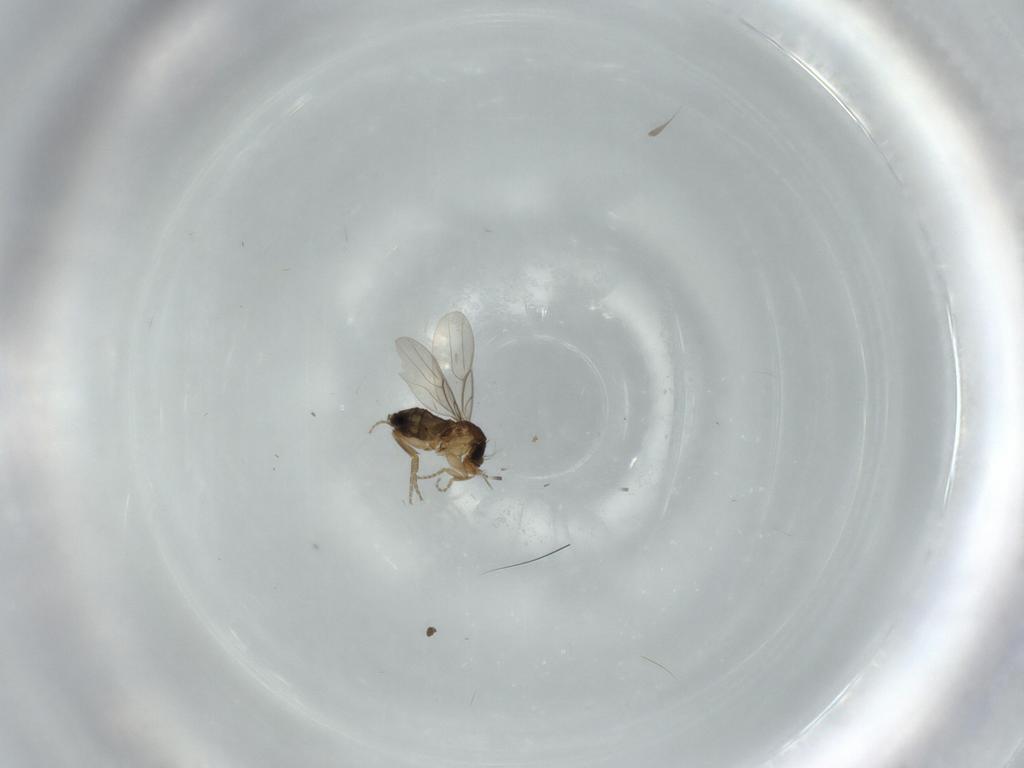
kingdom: Animalia
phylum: Arthropoda
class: Insecta
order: Diptera
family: Phoridae
